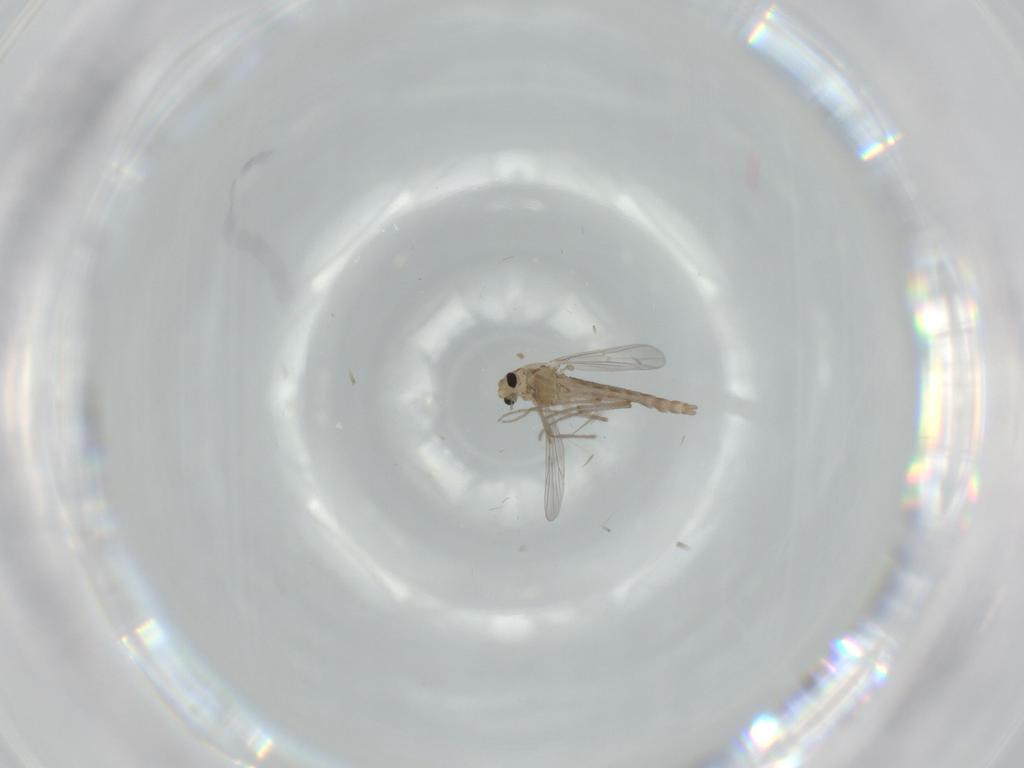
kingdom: Animalia
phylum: Arthropoda
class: Insecta
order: Diptera
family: Chironomidae
